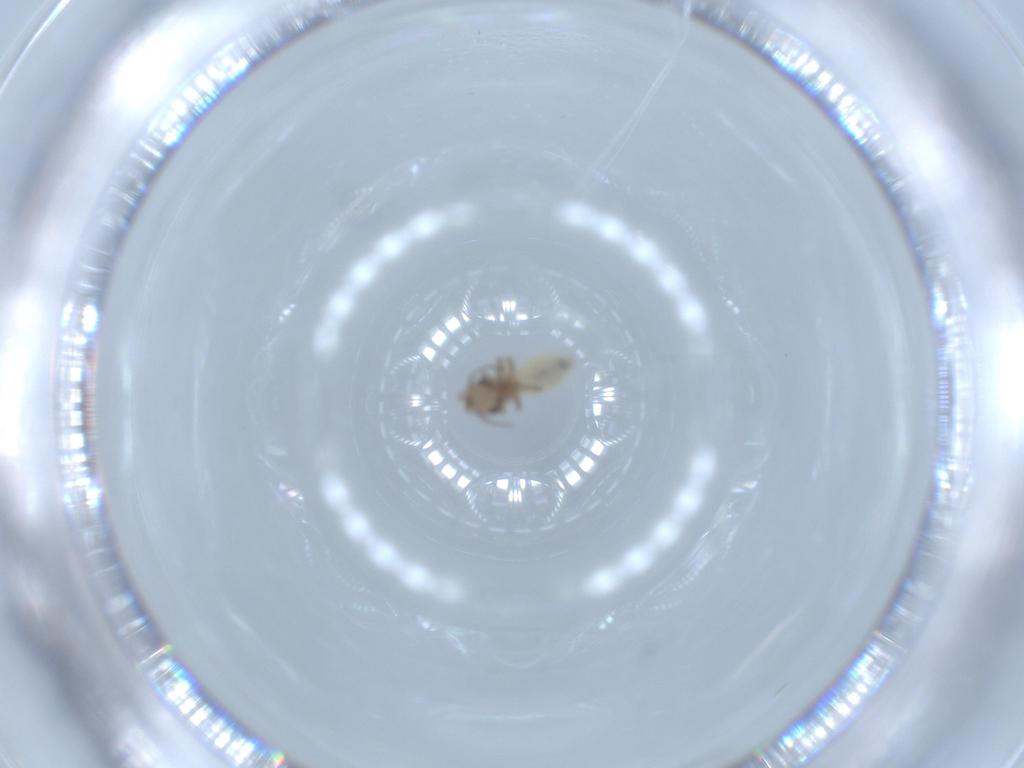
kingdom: Animalia
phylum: Arthropoda
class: Insecta
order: Psocodea
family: Lepidopsocidae
